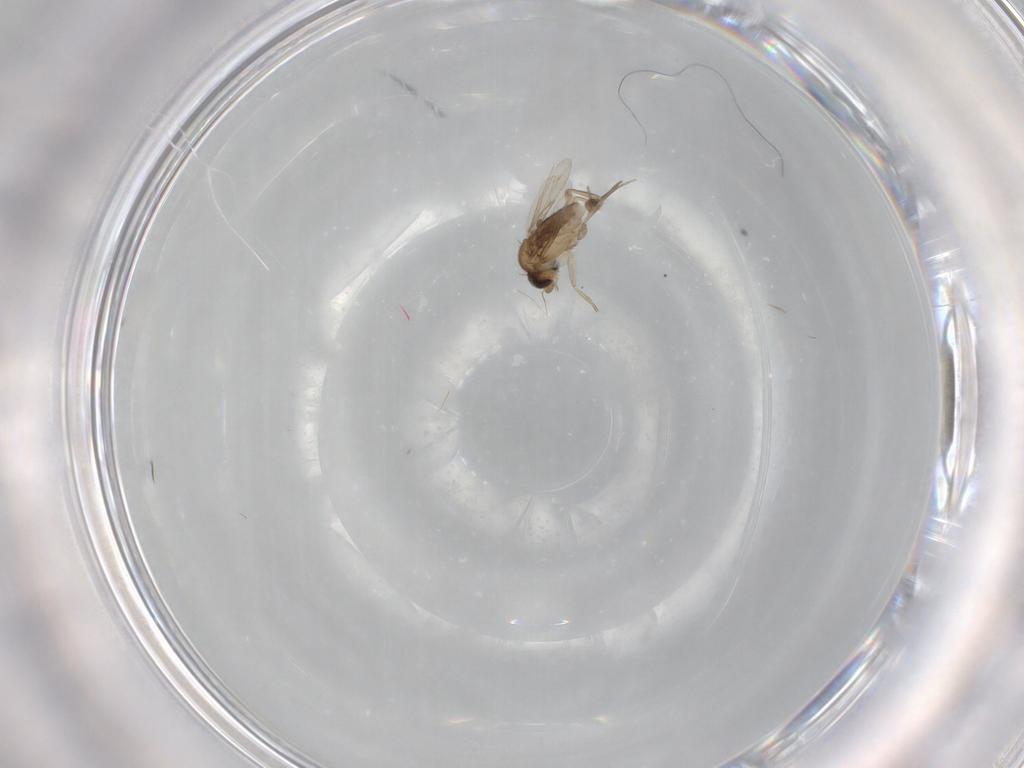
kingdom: Animalia
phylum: Arthropoda
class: Insecta
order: Diptera
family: Phoridae
